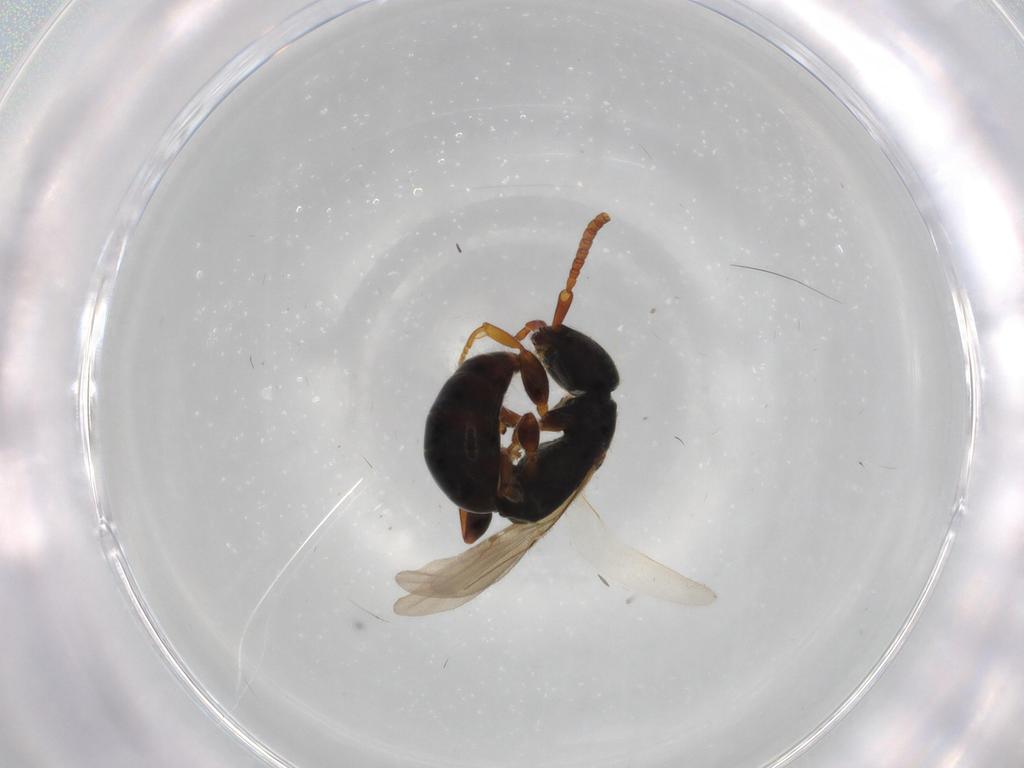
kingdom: Animalia
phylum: Arthropoda
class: Insecta
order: Hymenoptera
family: Bethylidae
